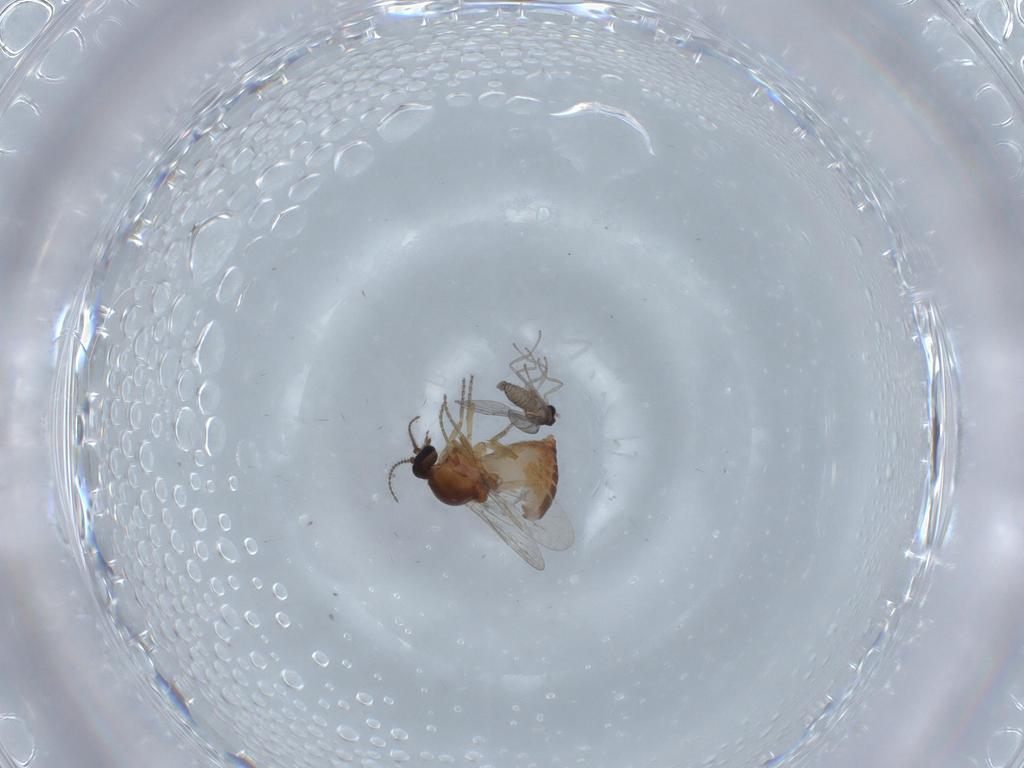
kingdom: Animalia
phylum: Arthropoda
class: Insecta
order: Diptera
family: Ceratopogonidae
